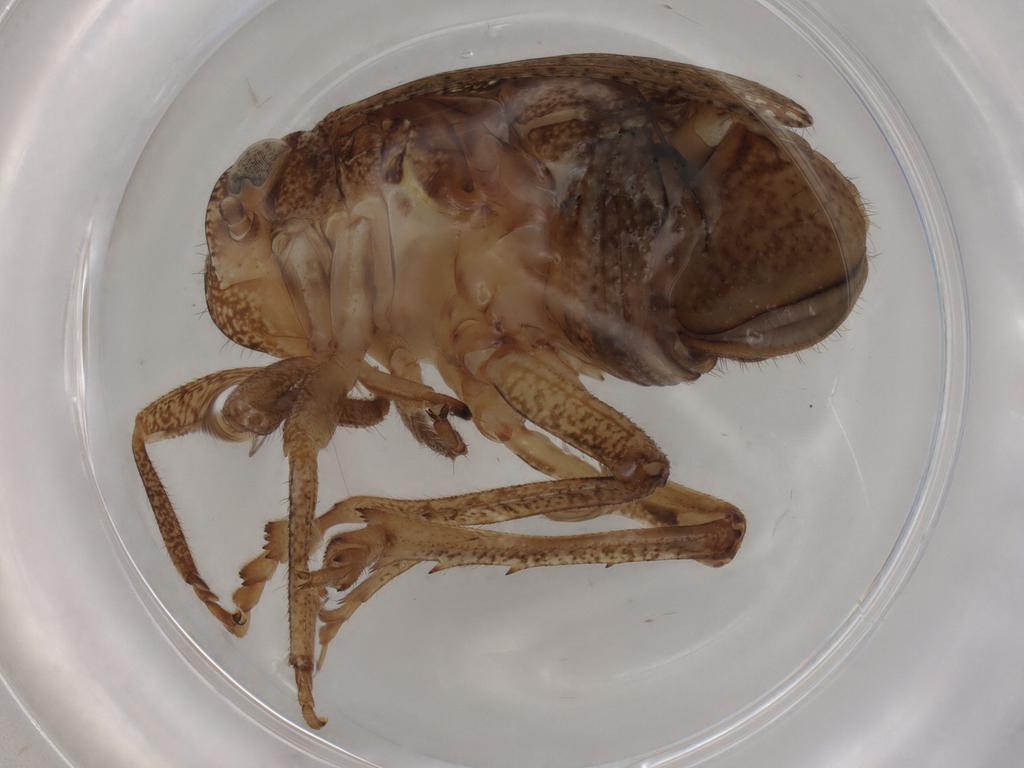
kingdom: Animalia
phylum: Arthropoda
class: Insecta
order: Hemiptera
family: Tropiduchidae
